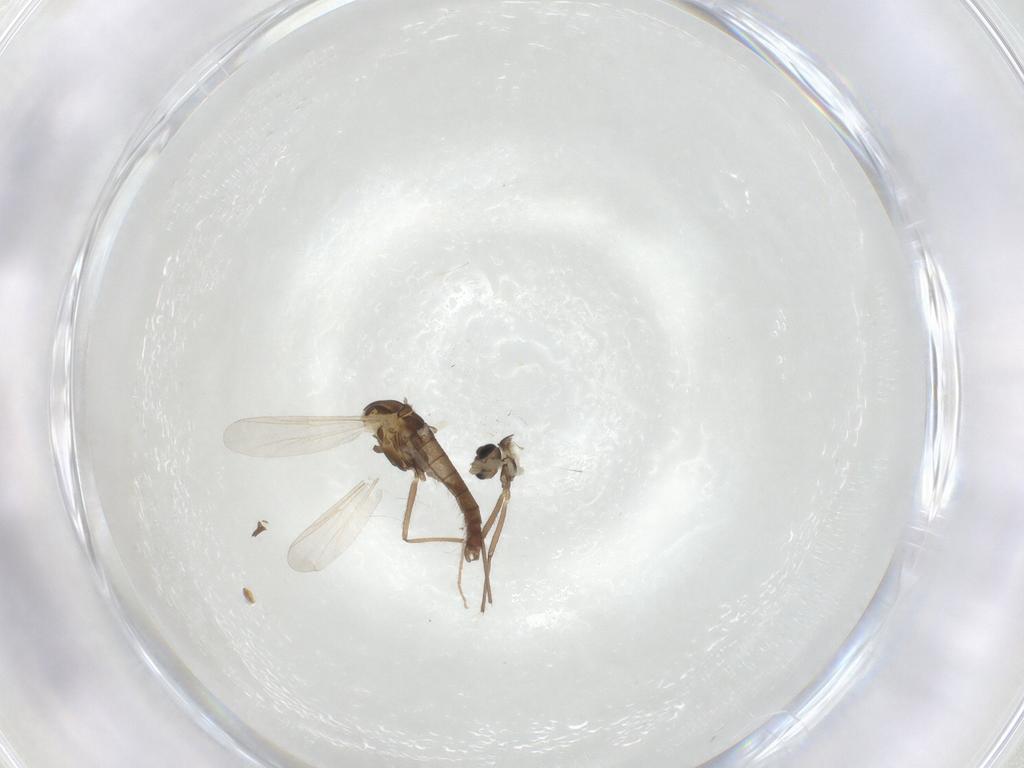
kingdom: Animalia
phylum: Arthropoda
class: Insecta
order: Diptera
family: Chironomidae
